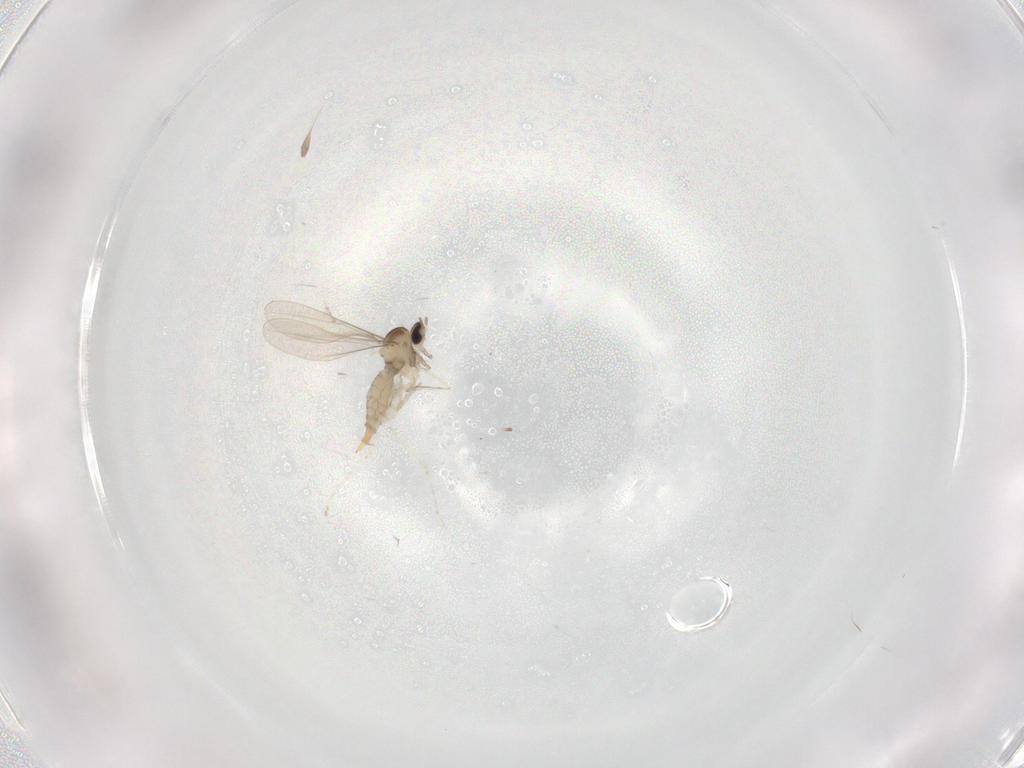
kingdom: Animalia
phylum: Arthropoda
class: Insecta
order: Diptera
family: Cecidomyiidae
